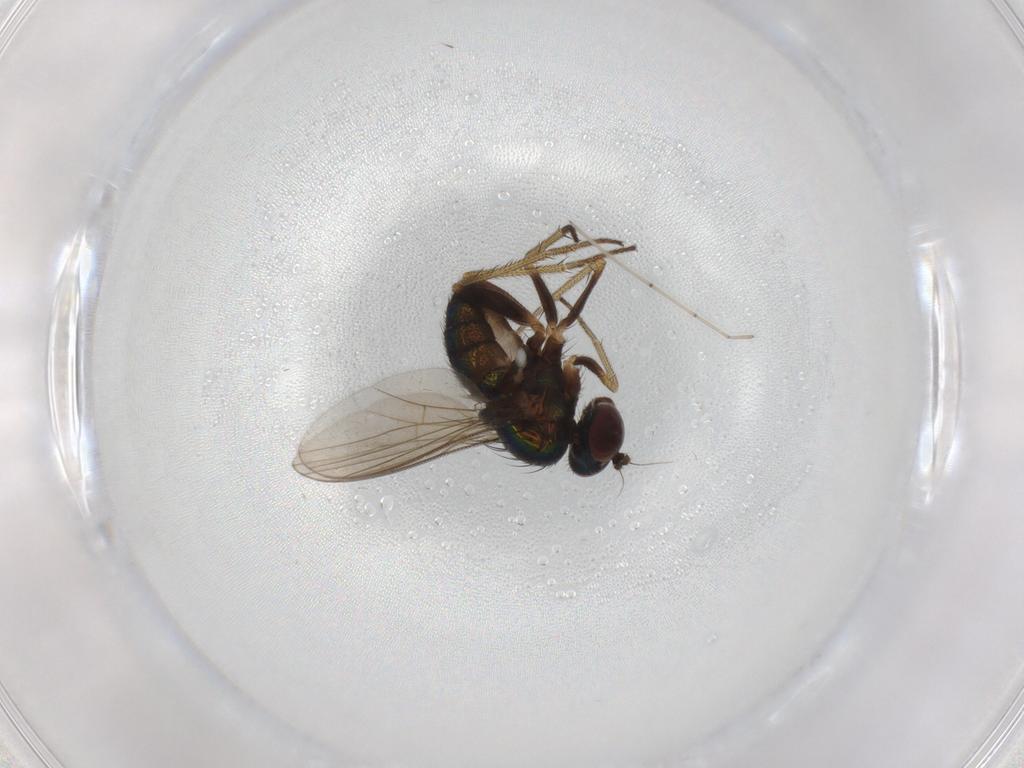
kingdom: Animalia
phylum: Arthropoda
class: Insecta
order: Diptera
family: Cecidomyiidae
